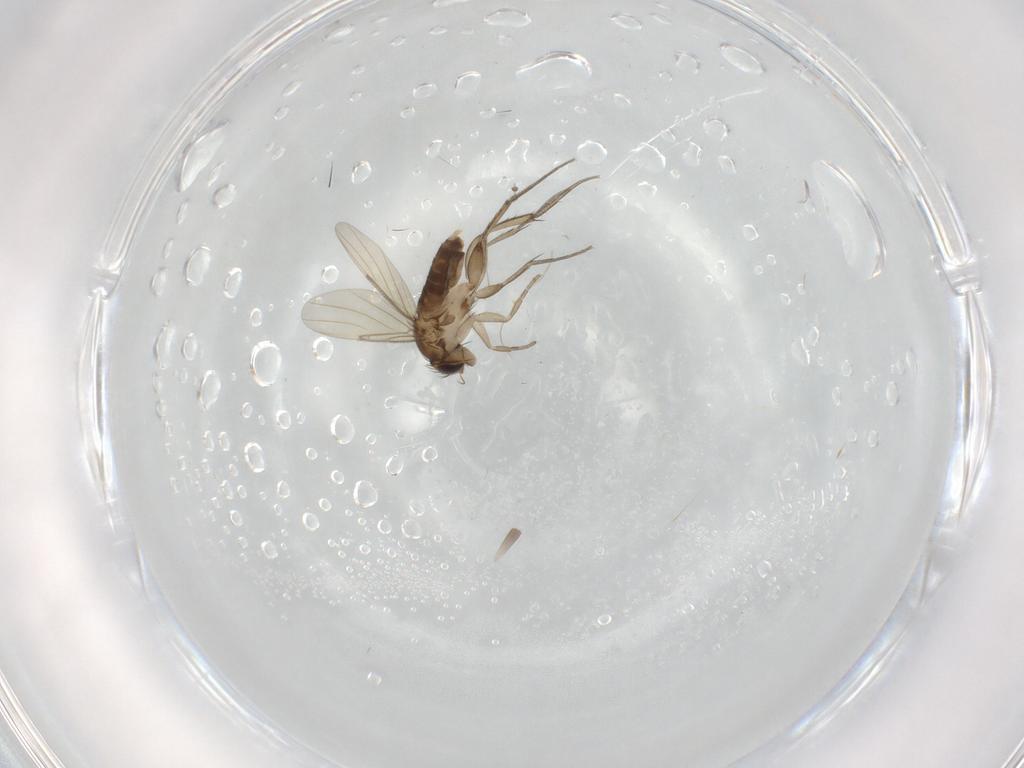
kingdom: Animalia
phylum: Arthropoda
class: Insecta
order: Diptera
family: Phoridae
